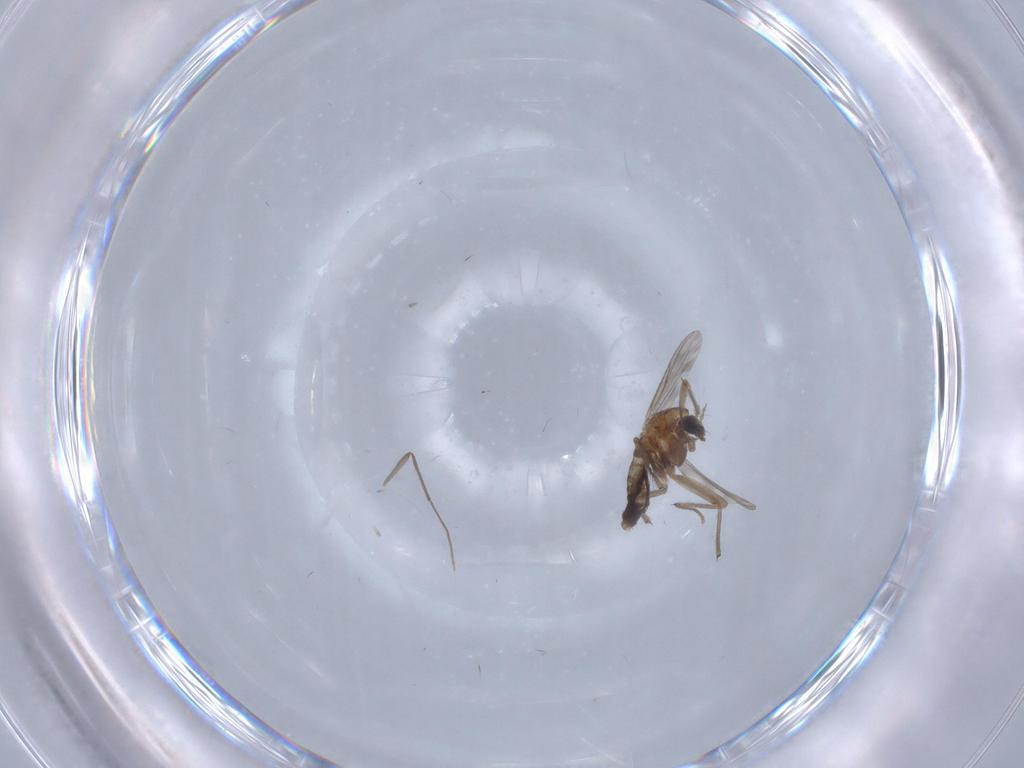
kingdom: Animalia
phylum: Arthropoda
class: Insecta
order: Diptera
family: Chironomidae
